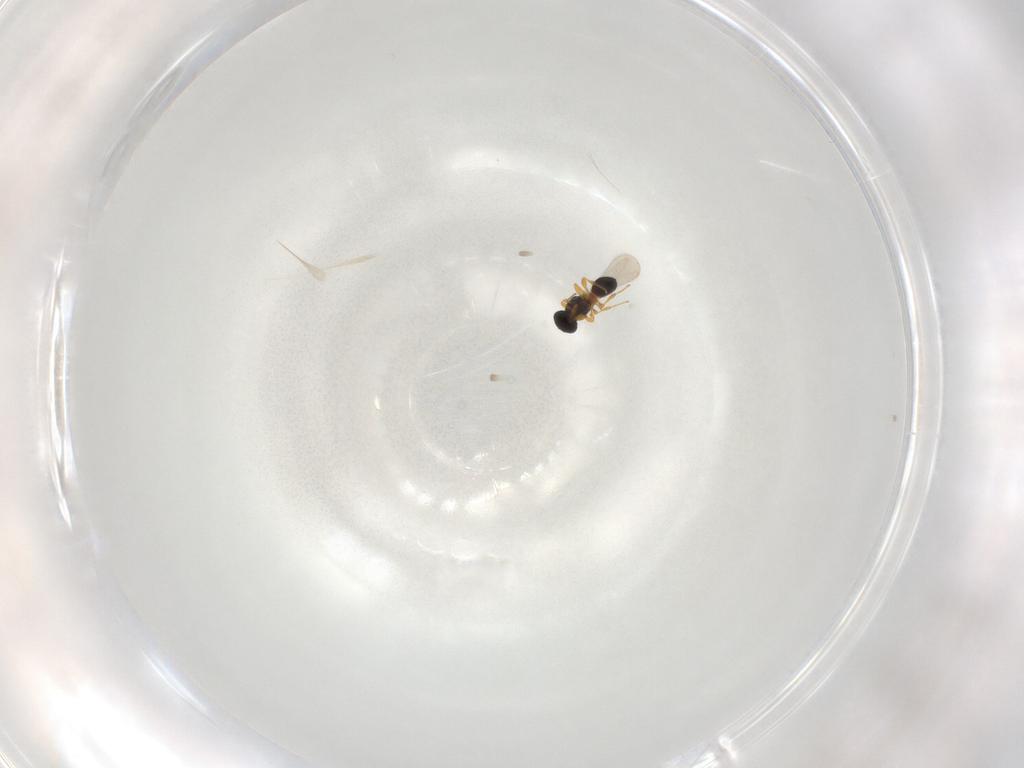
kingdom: Animalia
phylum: Arthropoda
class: Insecta
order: Hymenoptera
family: Platygastridae
